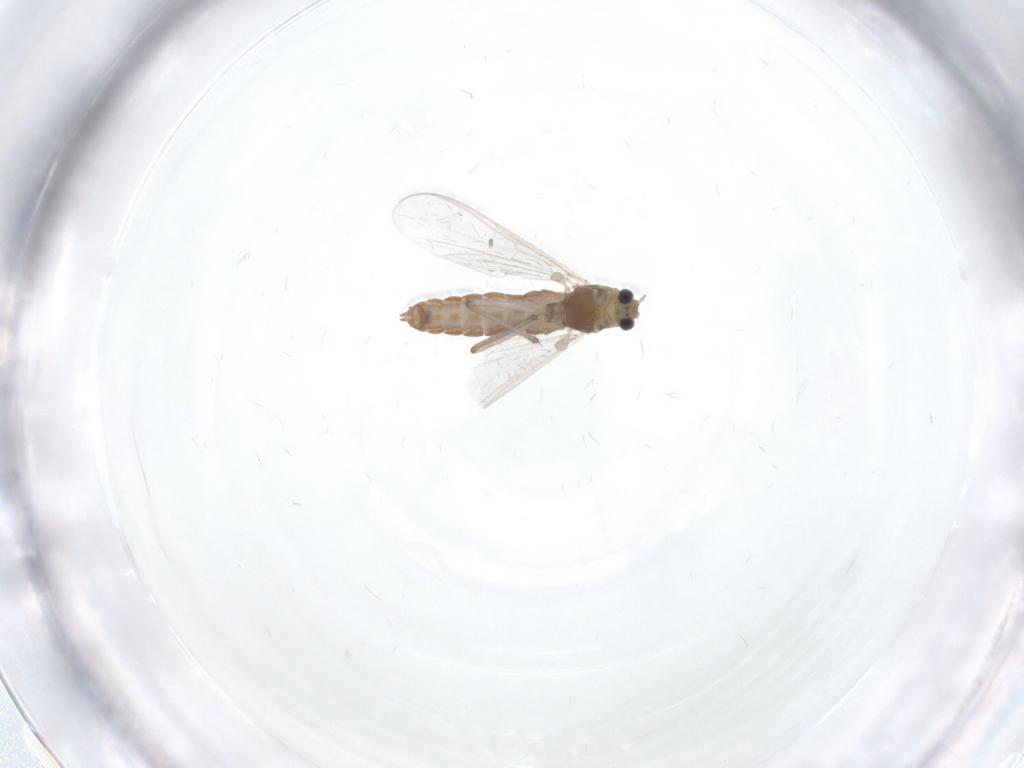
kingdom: Animalia
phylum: Arthropoda
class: Insecta
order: Diptera
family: Chironomidae
